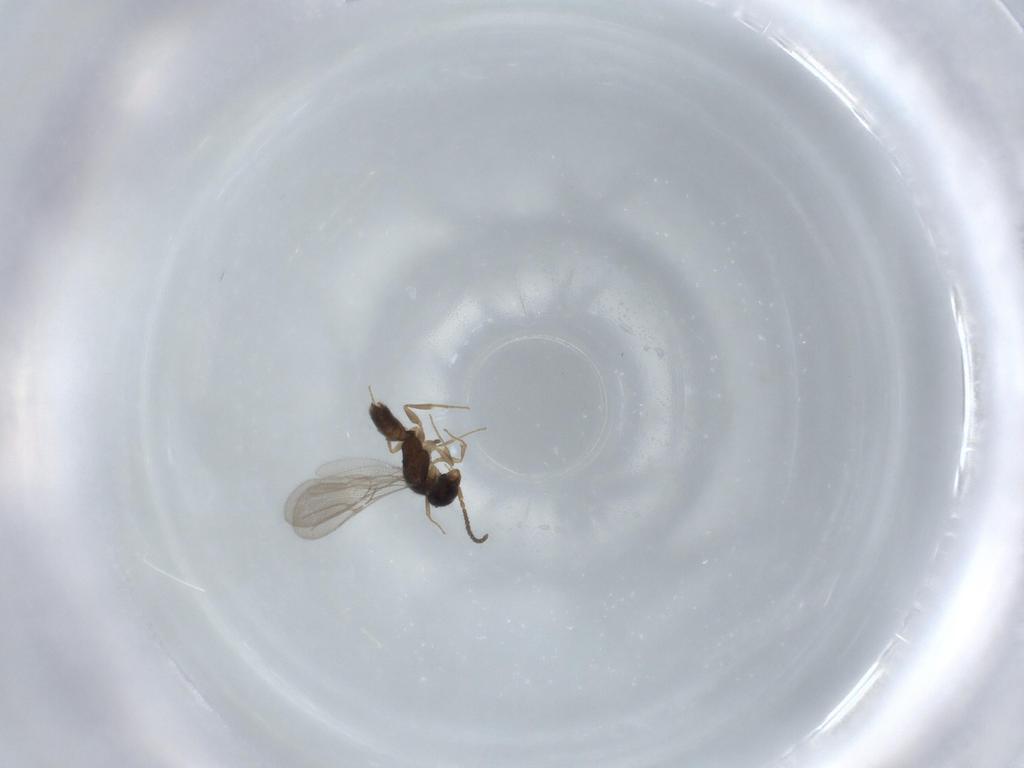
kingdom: Animalia
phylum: Arthropoda
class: Insecta
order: Hymenoptera
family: Bethylidae
